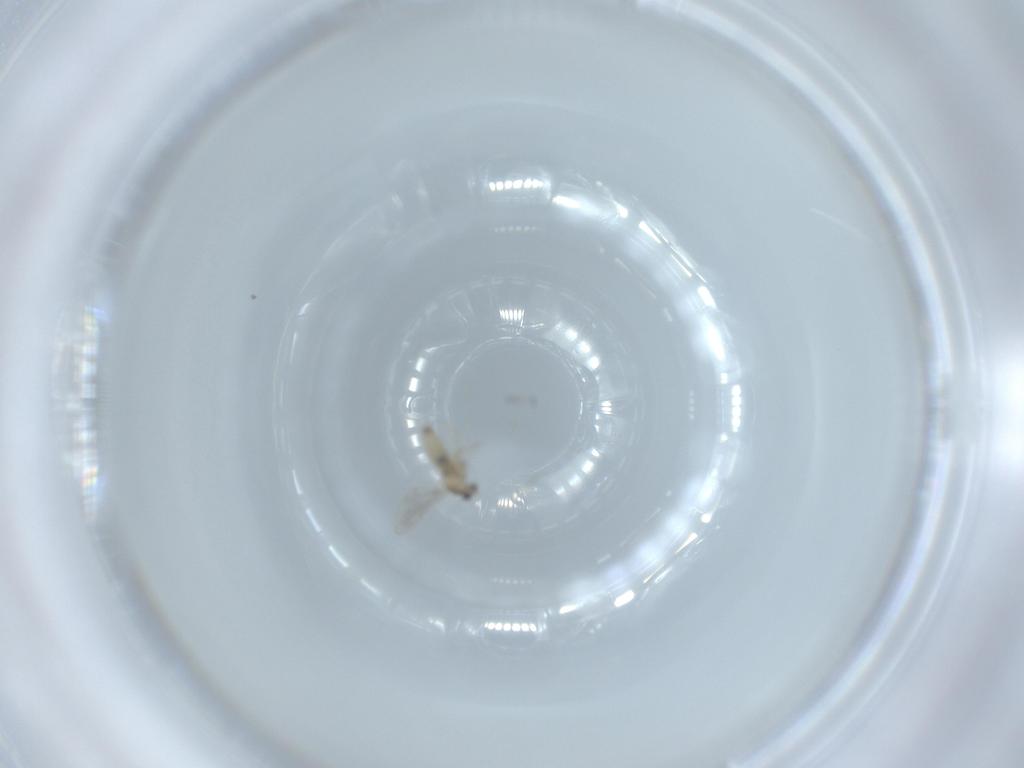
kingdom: Animalia
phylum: Arthropoda
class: Insecta
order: Diptera
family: Cecidomyiidae
